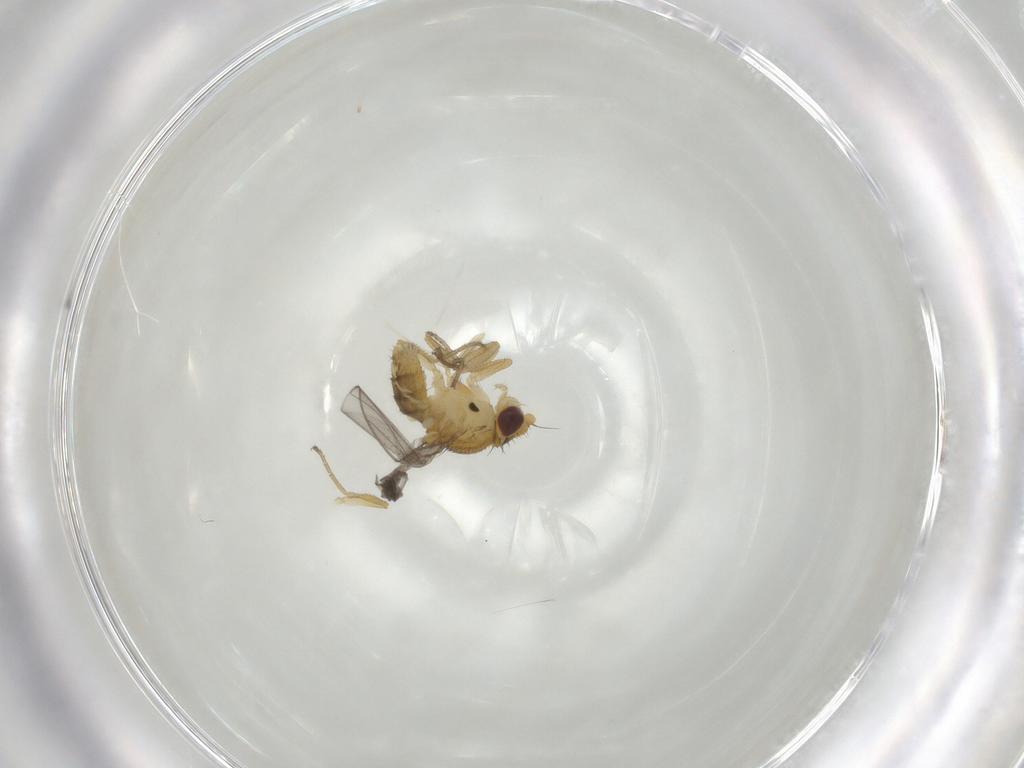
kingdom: Animalia
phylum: Arthropoda
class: Insecta
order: Diptera
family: Chloropidae
